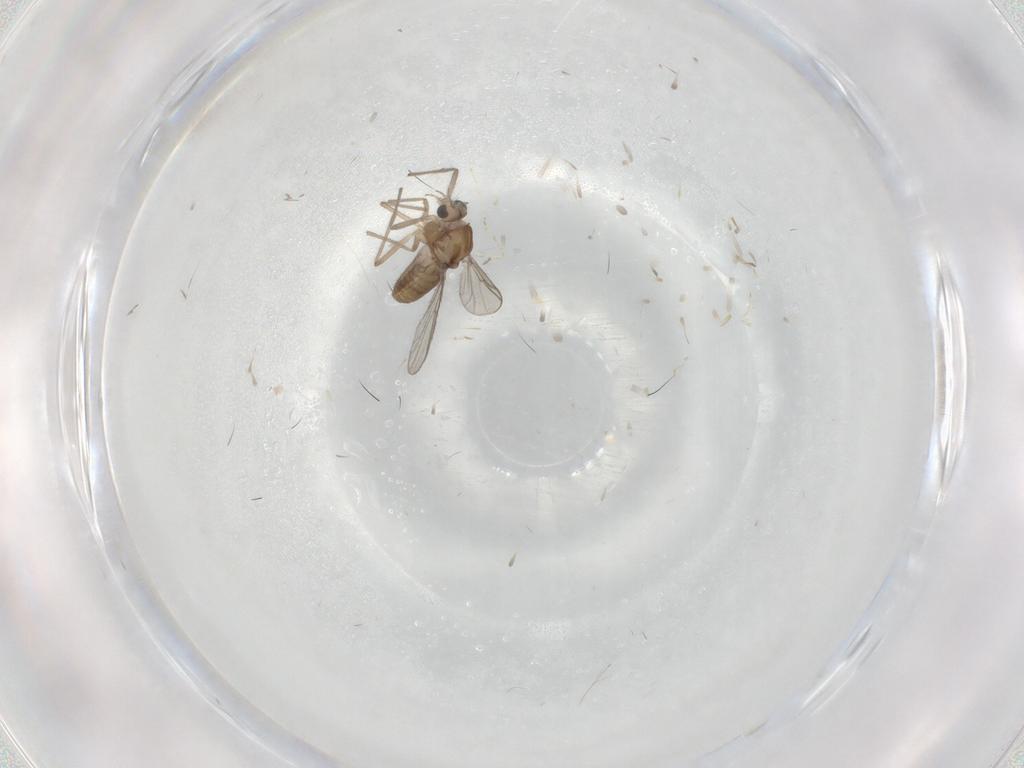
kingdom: Animalia
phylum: Arthropoda
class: Insecta
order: Diptera
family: Chironomidae
